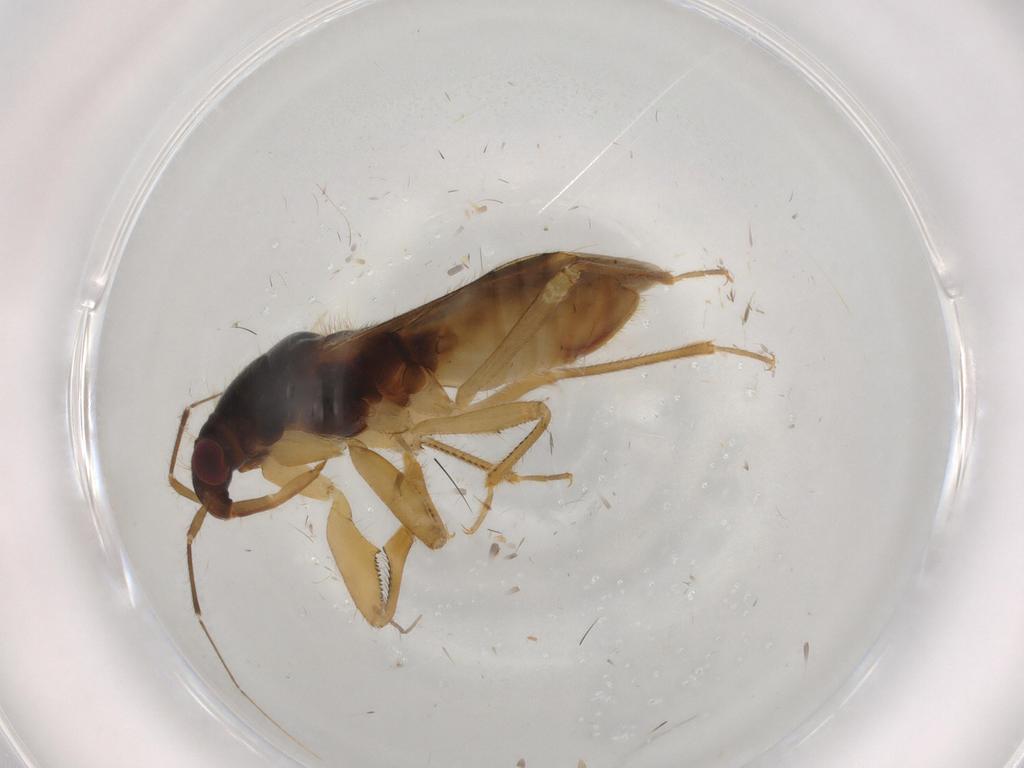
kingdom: Animalia
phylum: Arthropoda
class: Insecta
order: Hemiptera
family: Nabidae
